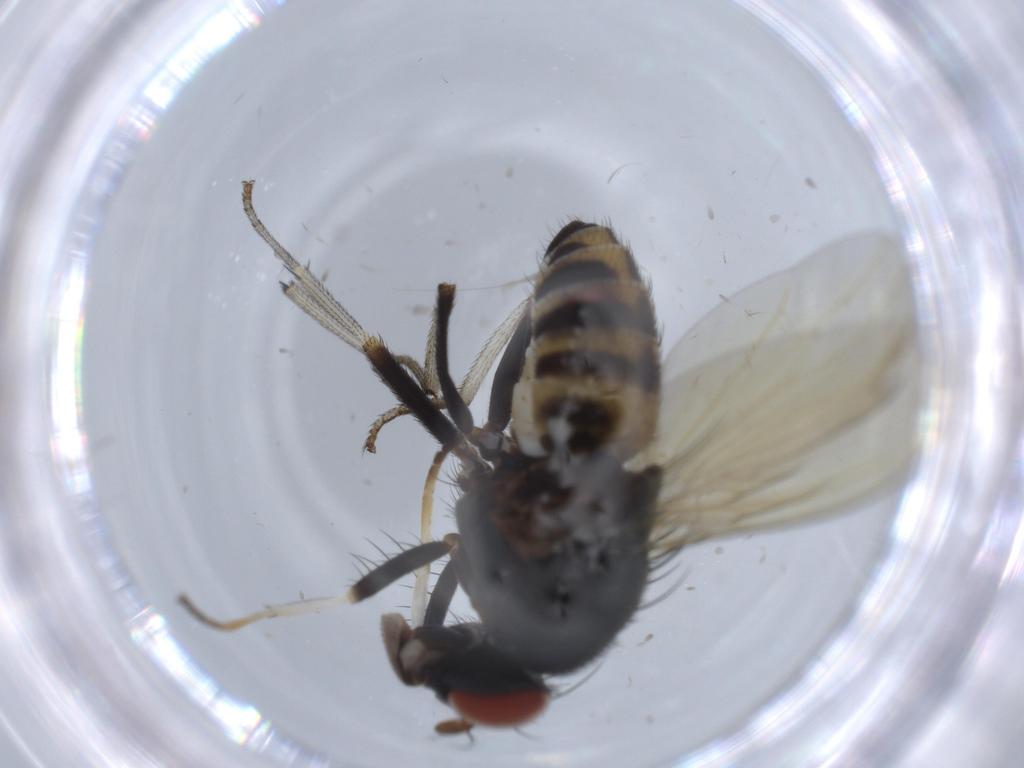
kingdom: Animalia
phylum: Arthropoda
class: Insecta
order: Diptera
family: Lauxaniidae
